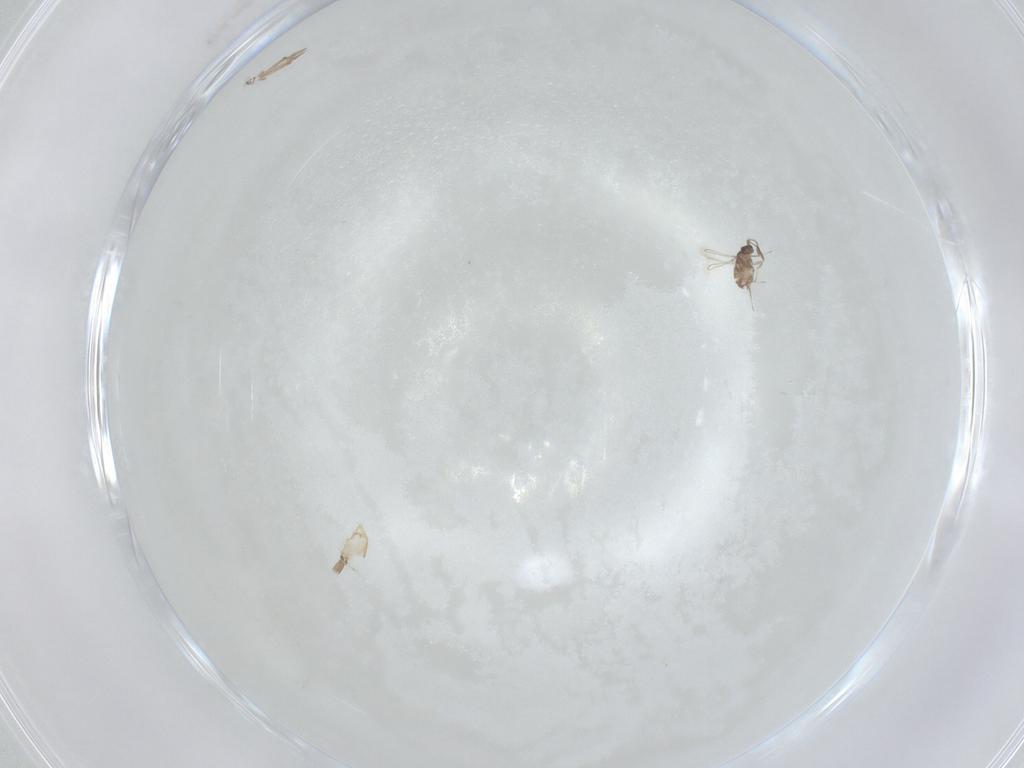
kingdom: Animalia
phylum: Arthropoda
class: Insecta
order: Hymenoptera
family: Mymaridae
